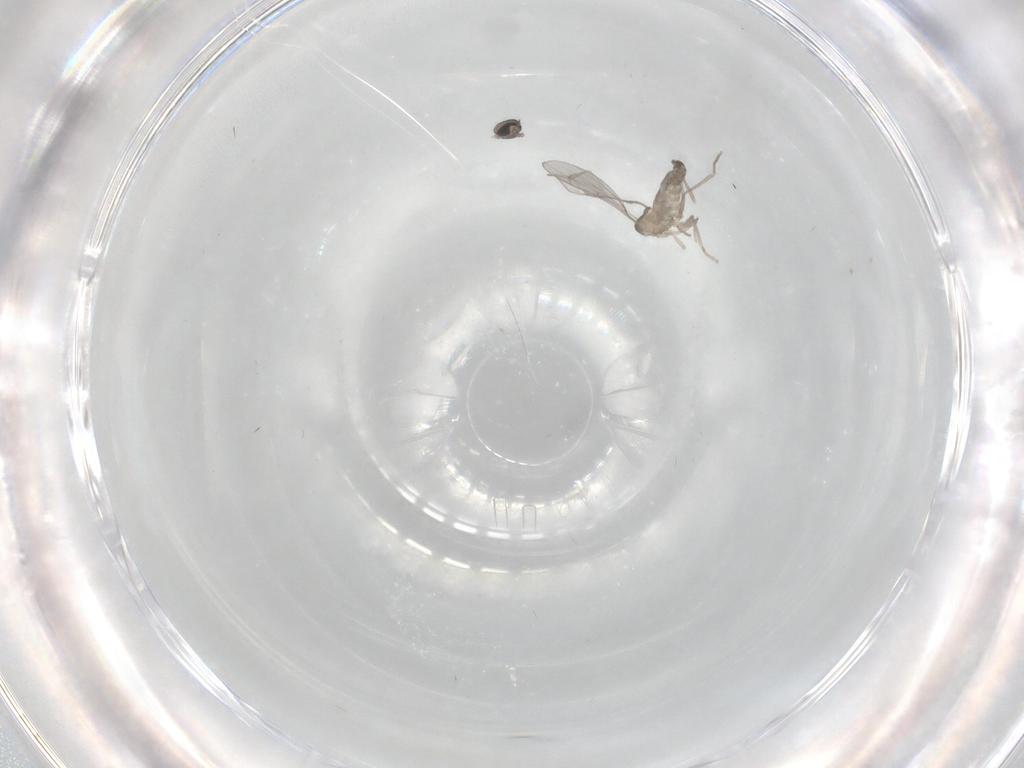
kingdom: Animalia
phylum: Arthropoda
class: Insecta
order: Diptera
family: Cecidomyiidae
